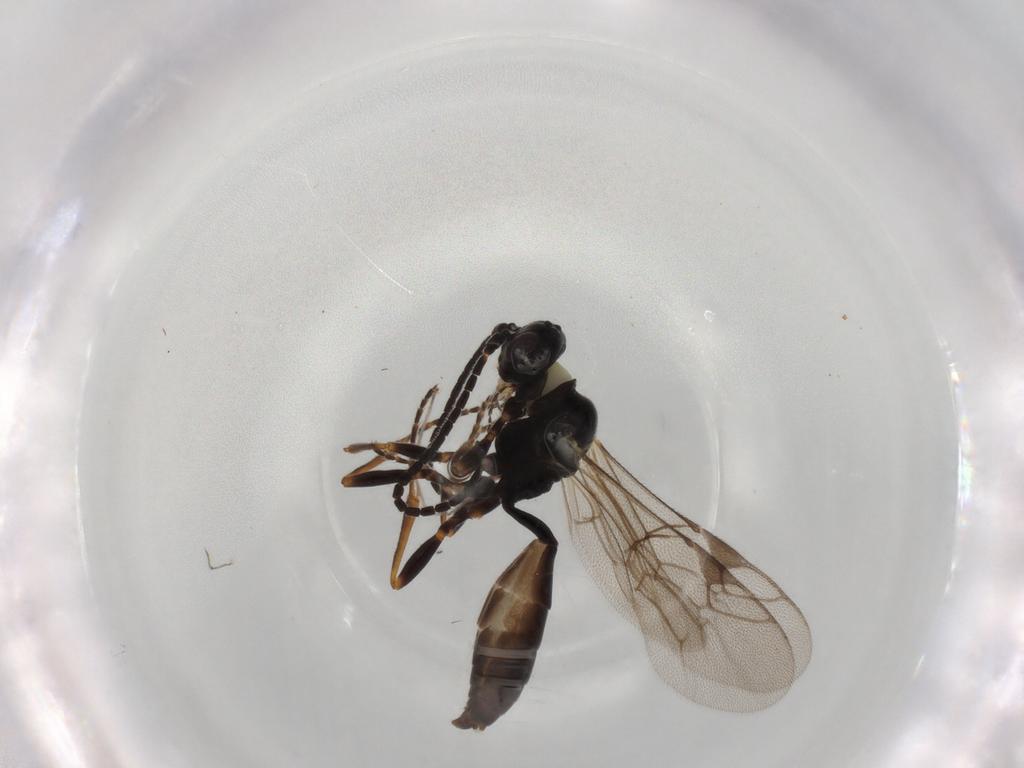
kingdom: Animalia
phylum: Arthropoda
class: Insecta
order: Hymenoptera
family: Ichneumonidae
